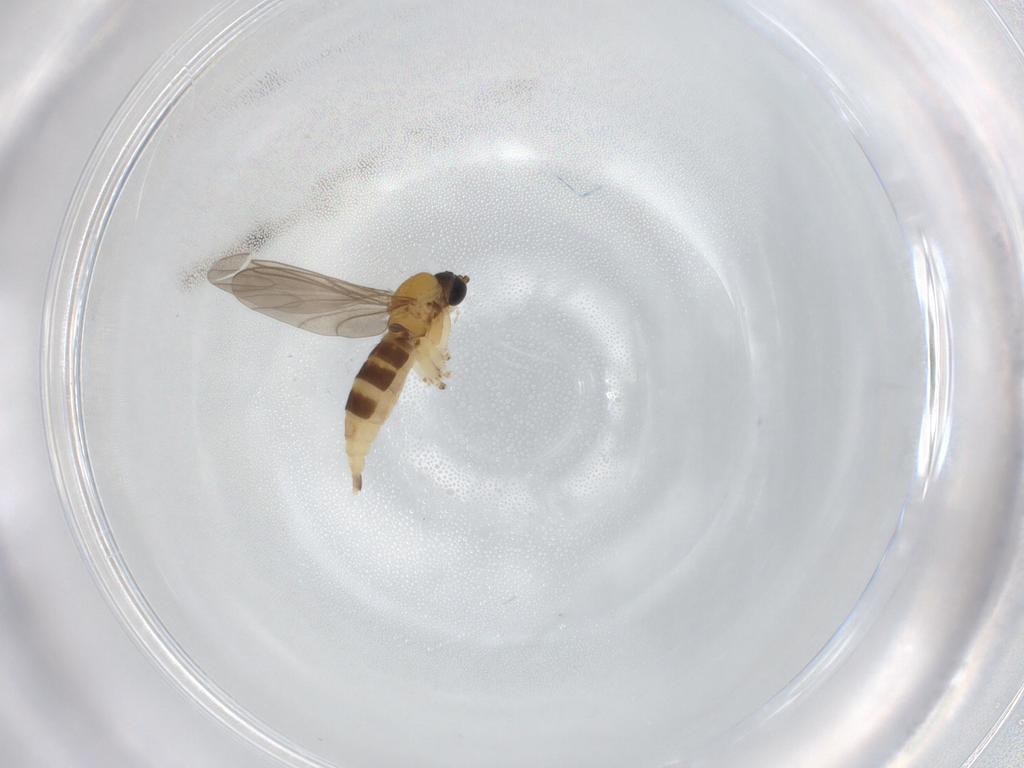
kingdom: Animalia
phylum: Arthropoda
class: Insecta
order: Diptera
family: Sciaridae
